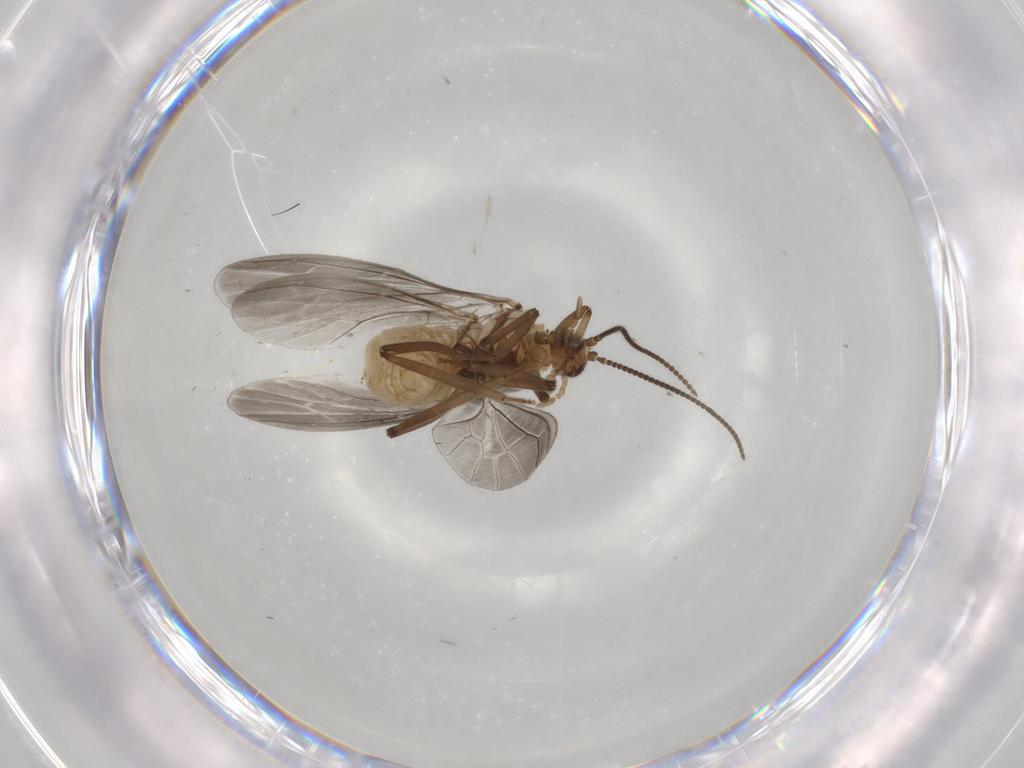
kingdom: Animalia
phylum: Arthropoda
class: Insecta
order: Neuroptera
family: Coniopterygidae
